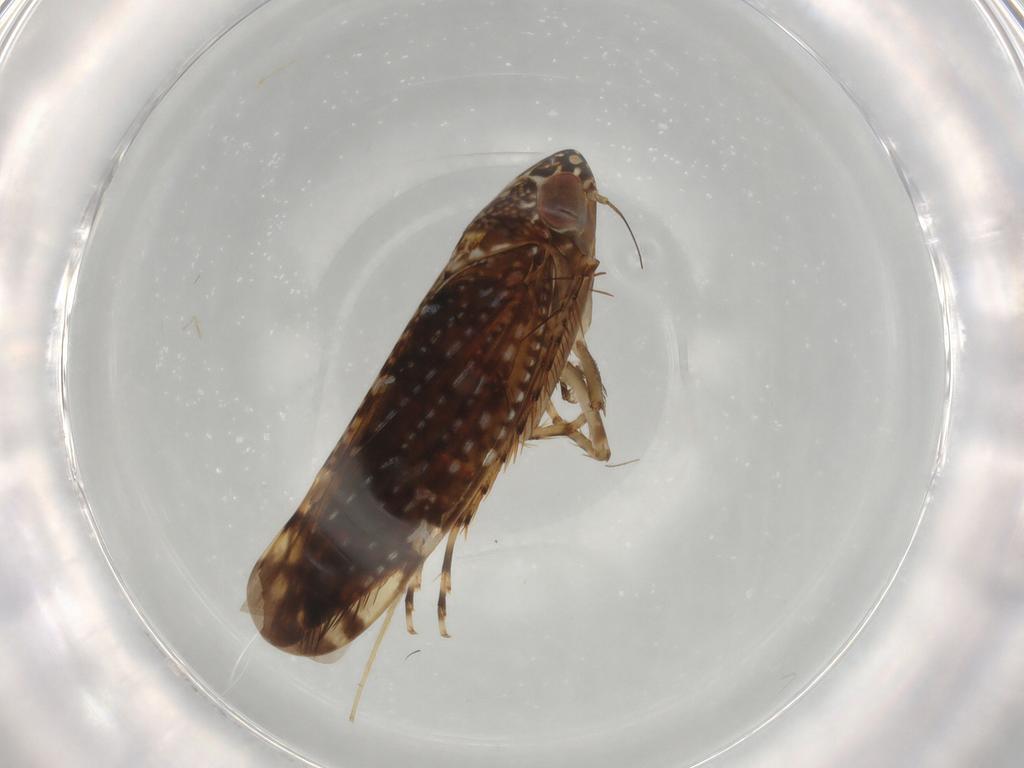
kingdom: Animalia
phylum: Arthropoda
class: Insecta
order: Hemiptera
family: Cicadellidae
